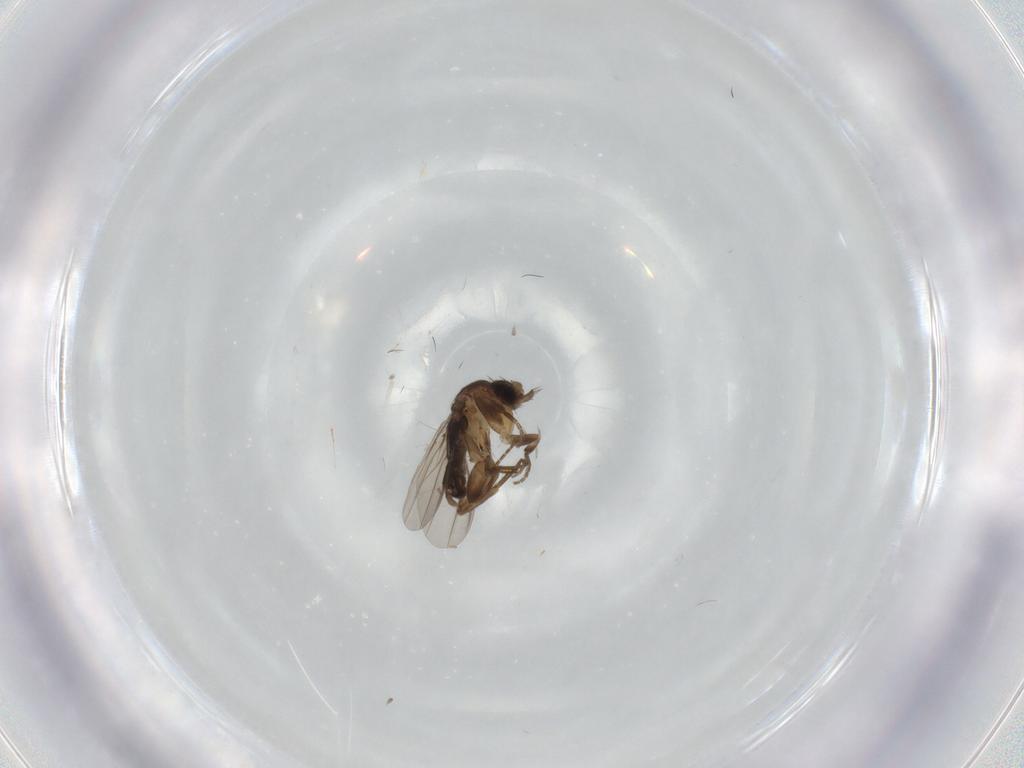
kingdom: Animalia
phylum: Arthropoda
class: Insecta
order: Diptera
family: Phoridae
